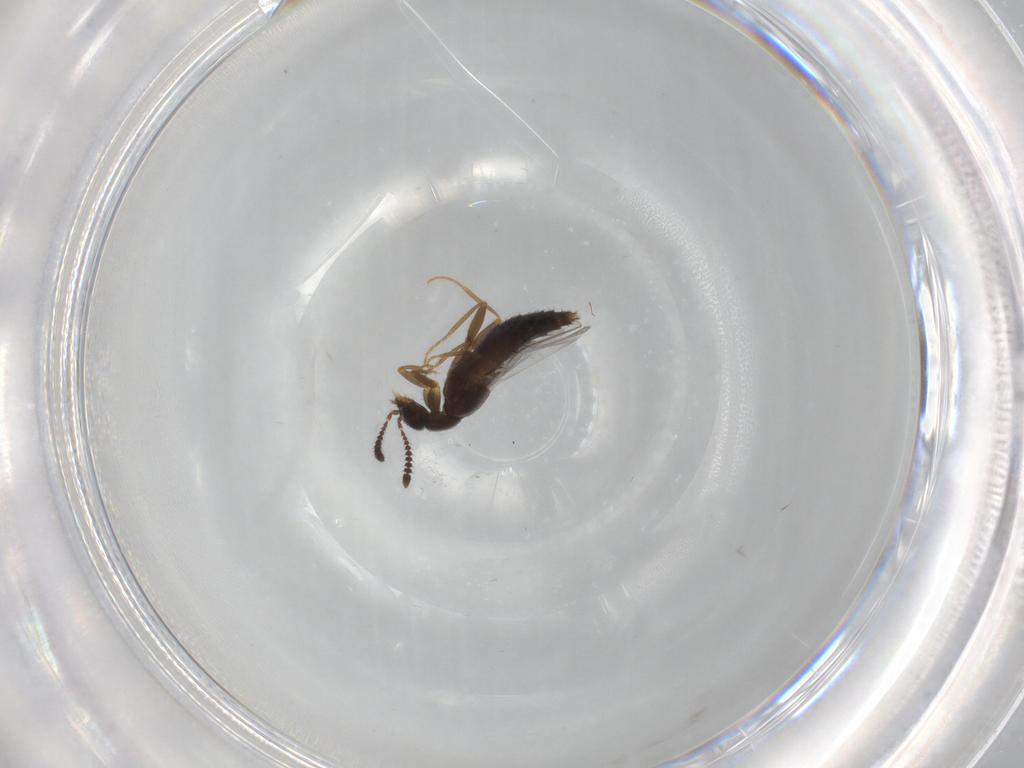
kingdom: Animalia
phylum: Arthropoda
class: Insecta
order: Coleoptera
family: Staphylinidae
